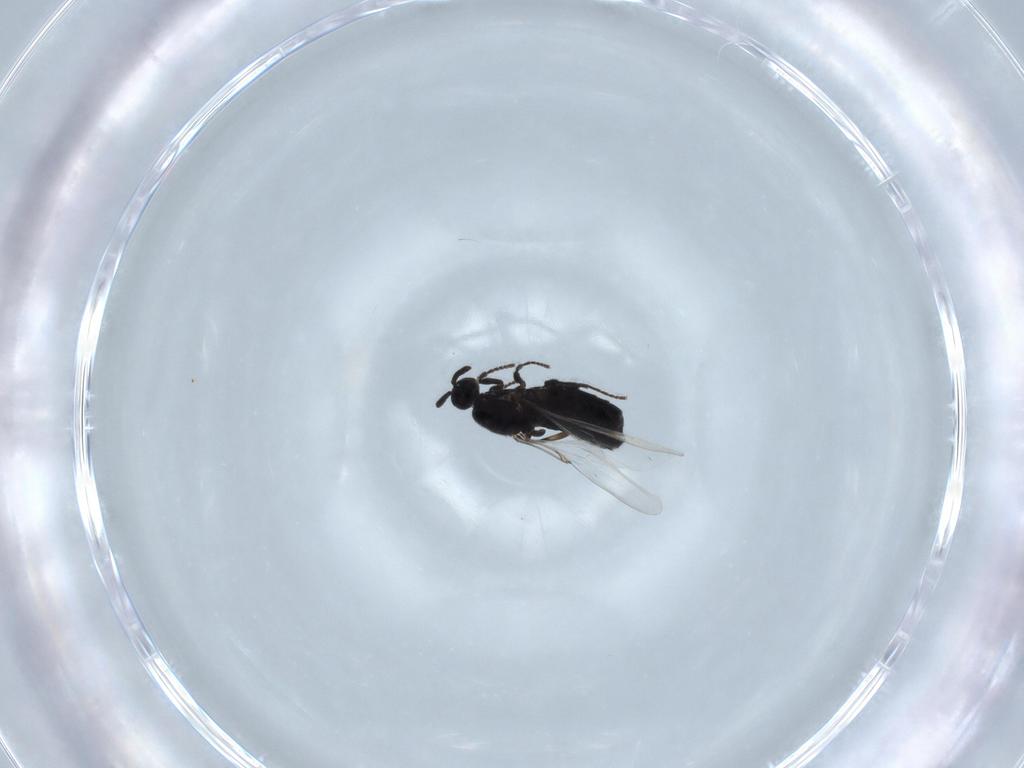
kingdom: Animalia
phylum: Arthropoda
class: Insecta
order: Diptera
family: Scatopsidae
